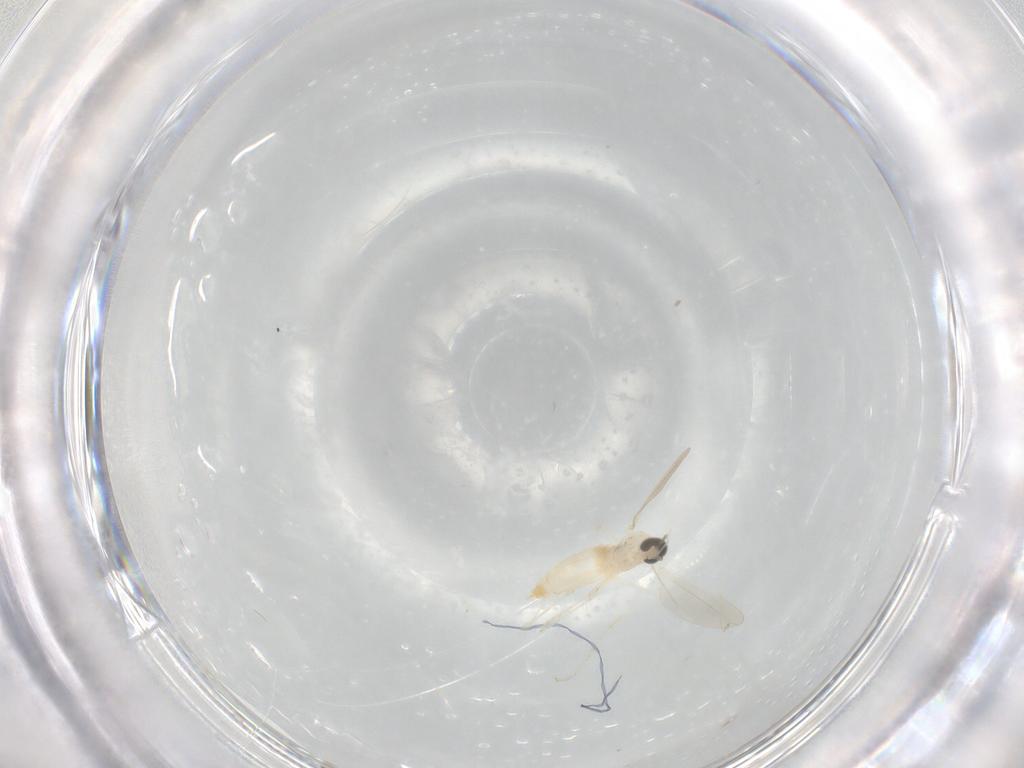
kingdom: Animalia
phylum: Arthropoda
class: Insecta
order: Diptera
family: Cecidomyiidae
